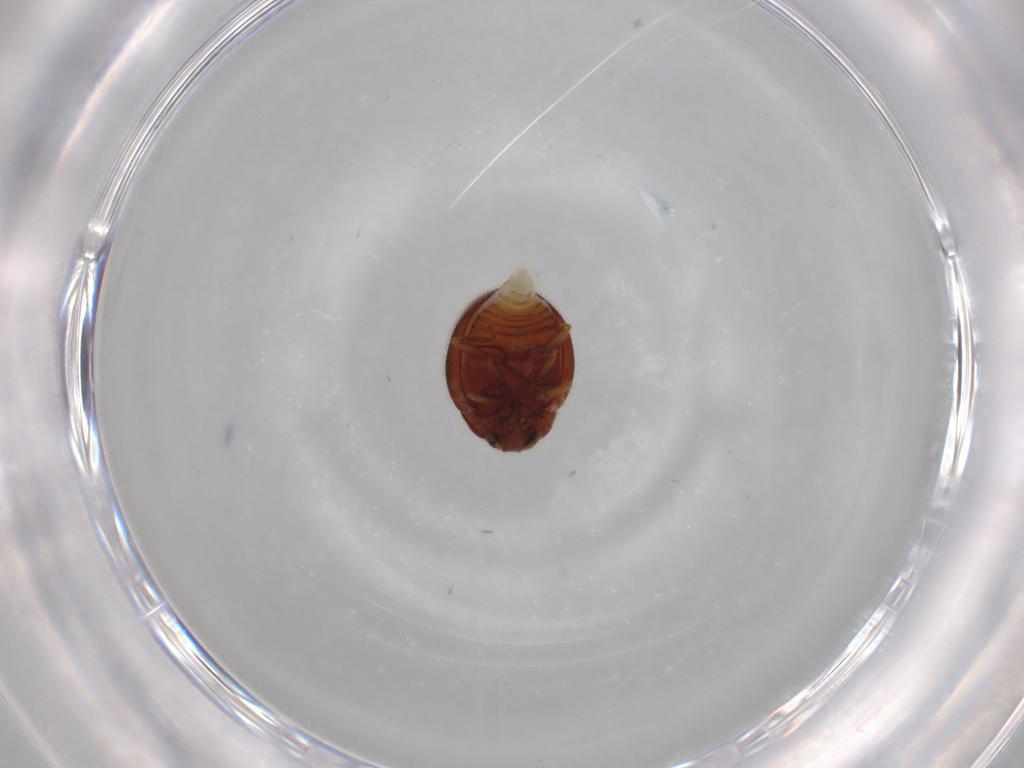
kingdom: Animalia
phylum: Arthropoda
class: Insecta
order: Coleoptera
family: Anamorphidae
